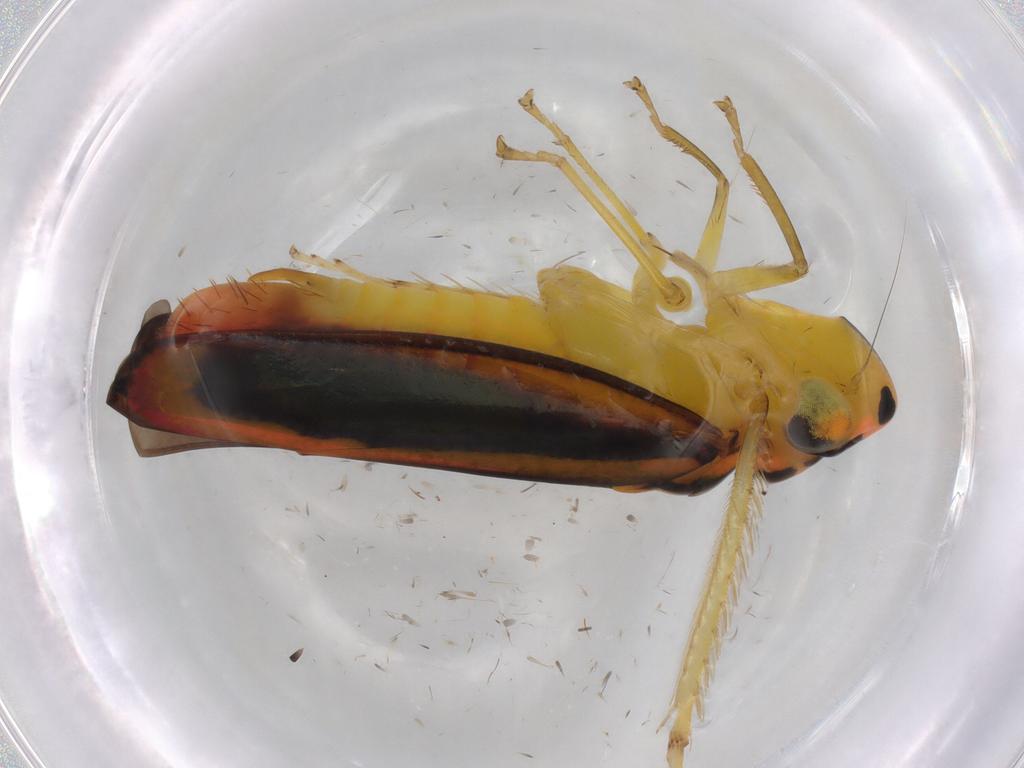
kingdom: Animalia
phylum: Arthropoda
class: Insecta
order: Hemiptera
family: Cicadellidae
